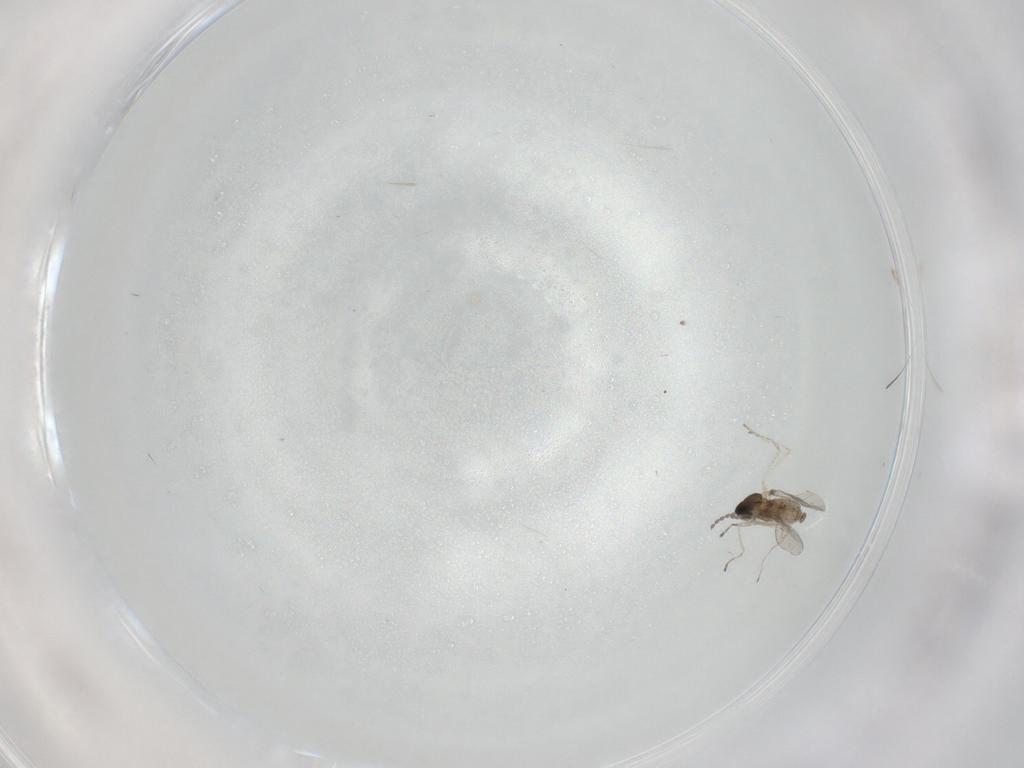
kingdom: Animalia
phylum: Arthropoda
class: Insecta
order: Diptera
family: Cecidomyiidae
